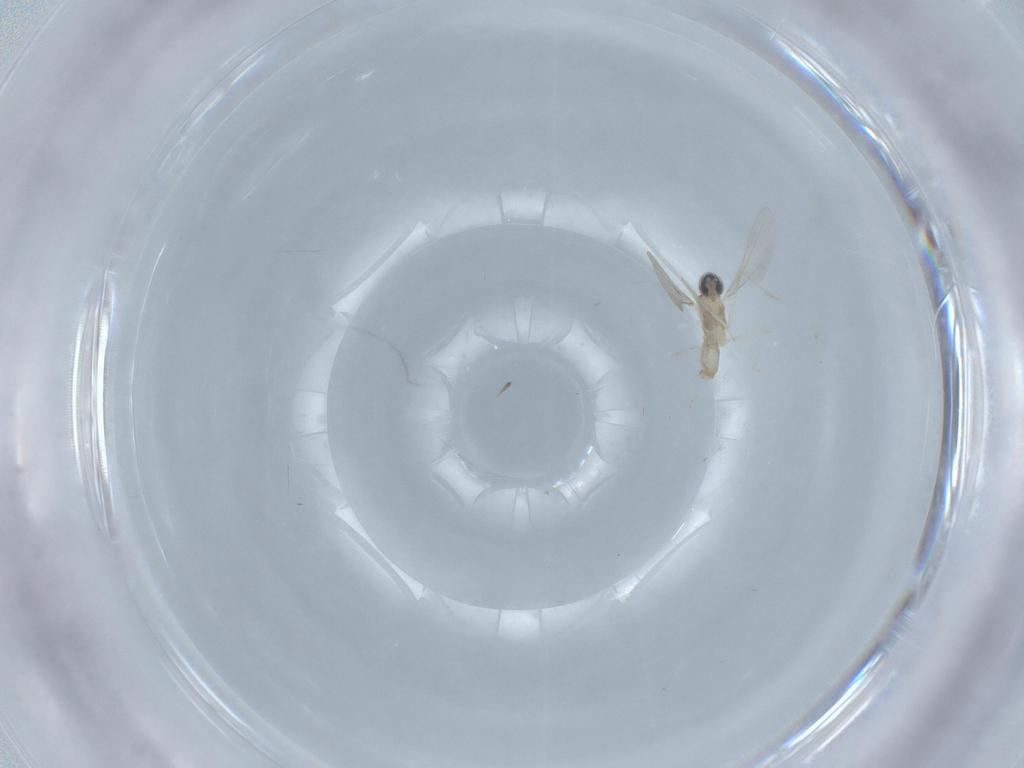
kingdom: Animalia
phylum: Arthropoda
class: Insecta
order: Diptera
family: Cecidomyiidae
